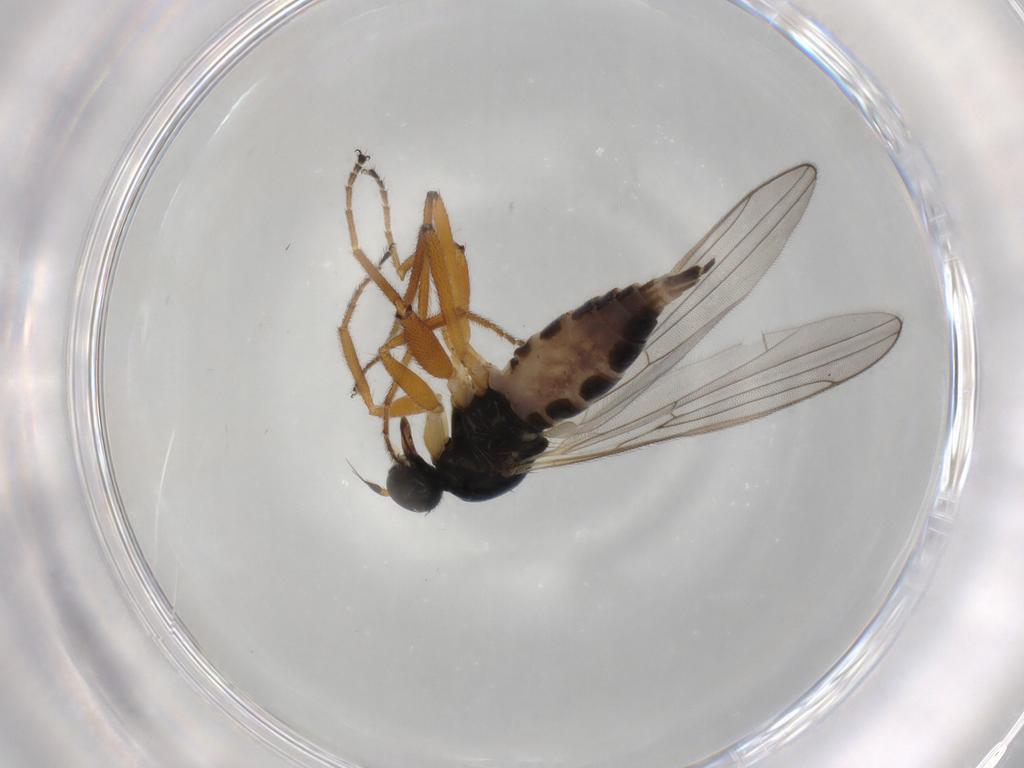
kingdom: Animalia
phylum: Arthropoda
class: Insecta
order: Diptera
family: Hybotidae
